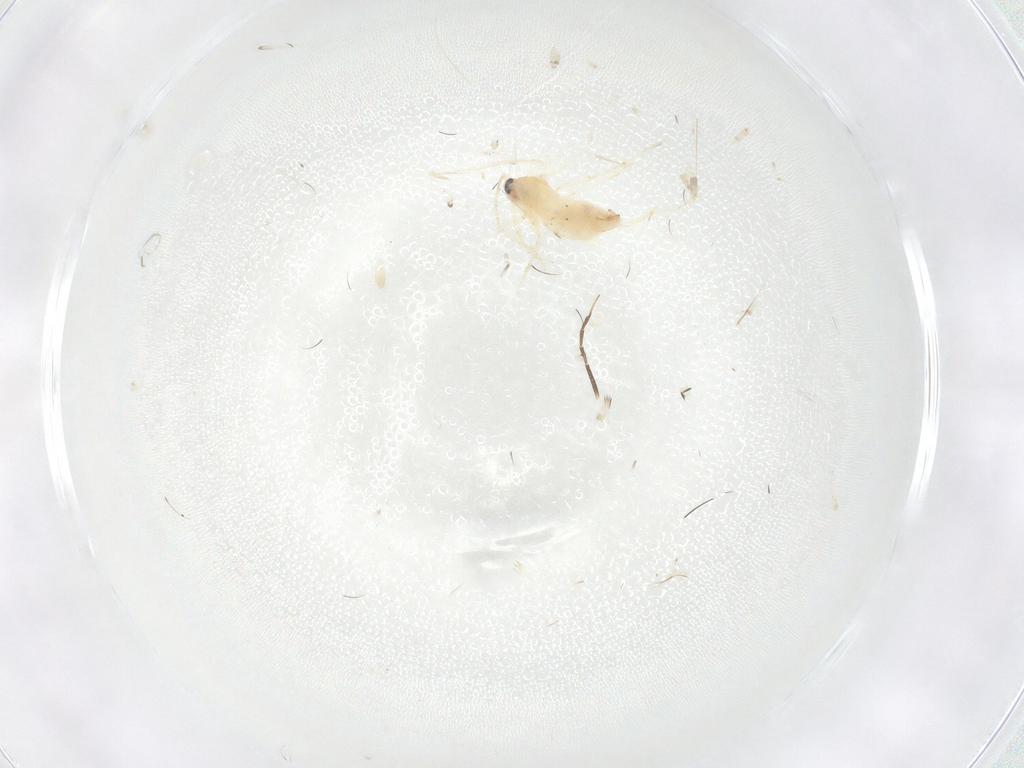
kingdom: Animalia
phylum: Arthropoda
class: Insecta
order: Lepidoptera
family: Nepticulidae
